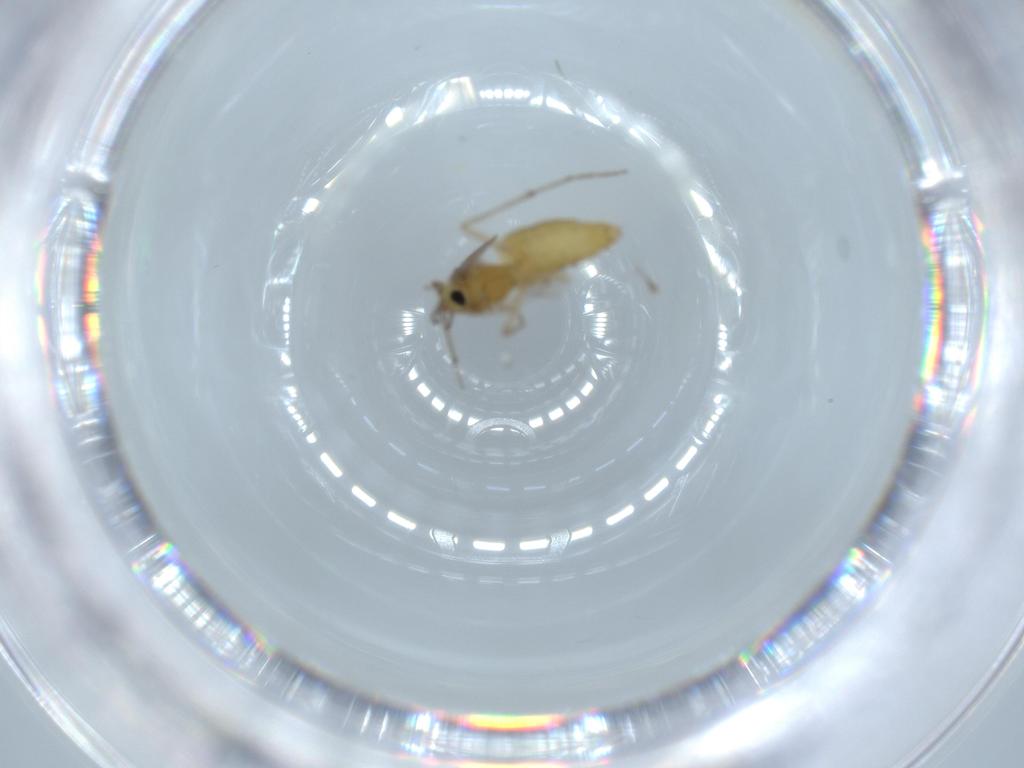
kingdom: Animalia
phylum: Arthropoda
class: Insecta
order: Diptera
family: Chironomidae
